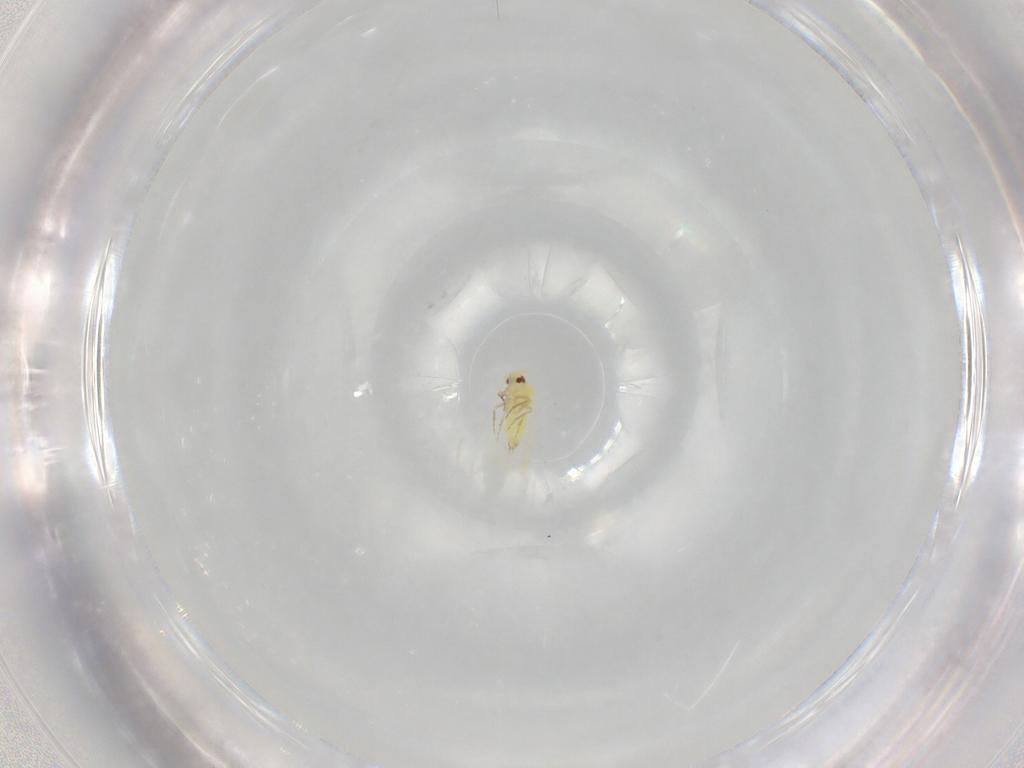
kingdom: Animalia
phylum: Arthropoda
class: Insecta
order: Hemiptera
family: Aleyrodidae
